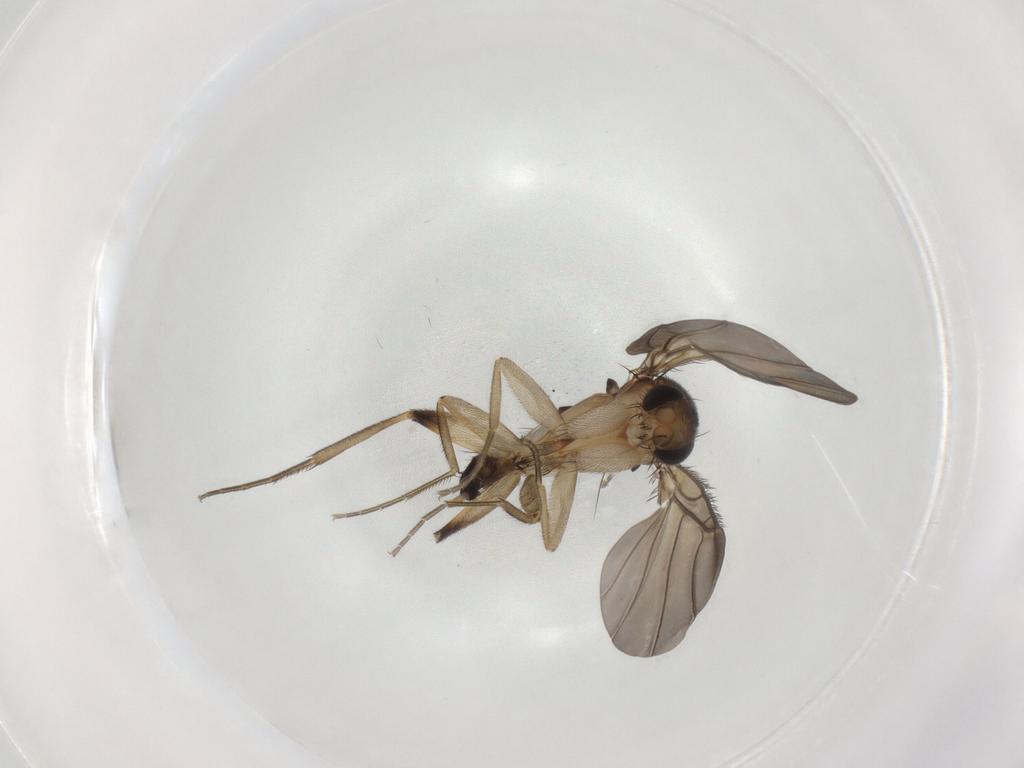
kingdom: Animalia
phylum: Arthropoda
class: Insecta
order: Diptera
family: Phoridae
